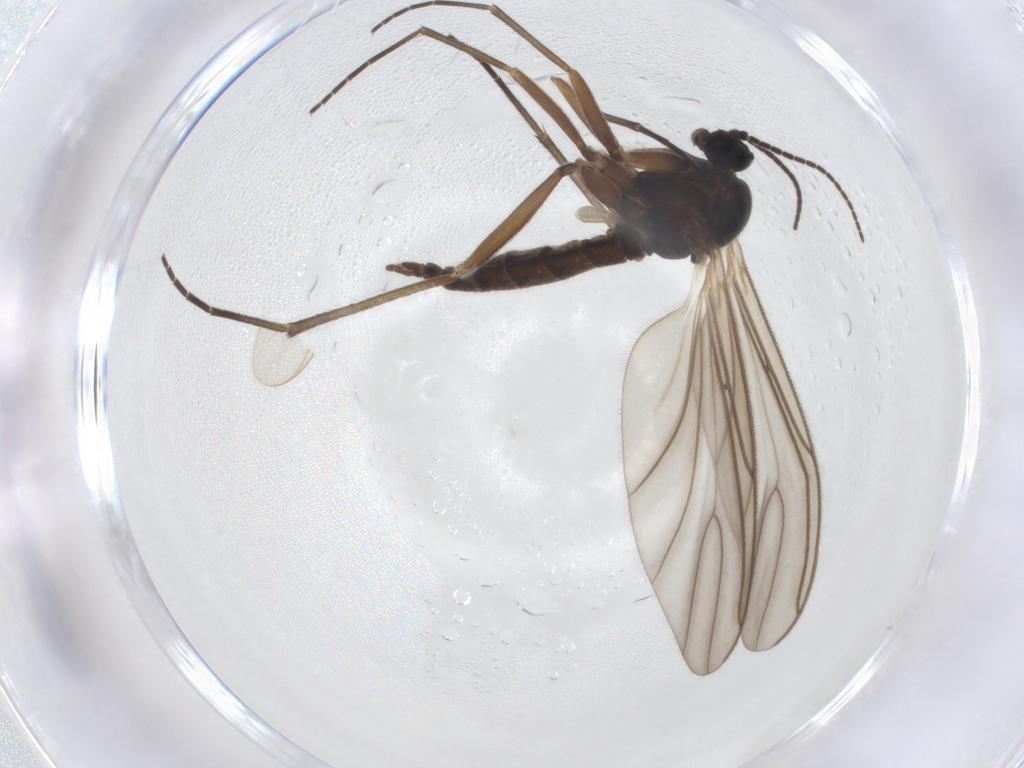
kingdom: Animalia
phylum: Arthropoda
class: Insecta
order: Diptera
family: Sciaridae
